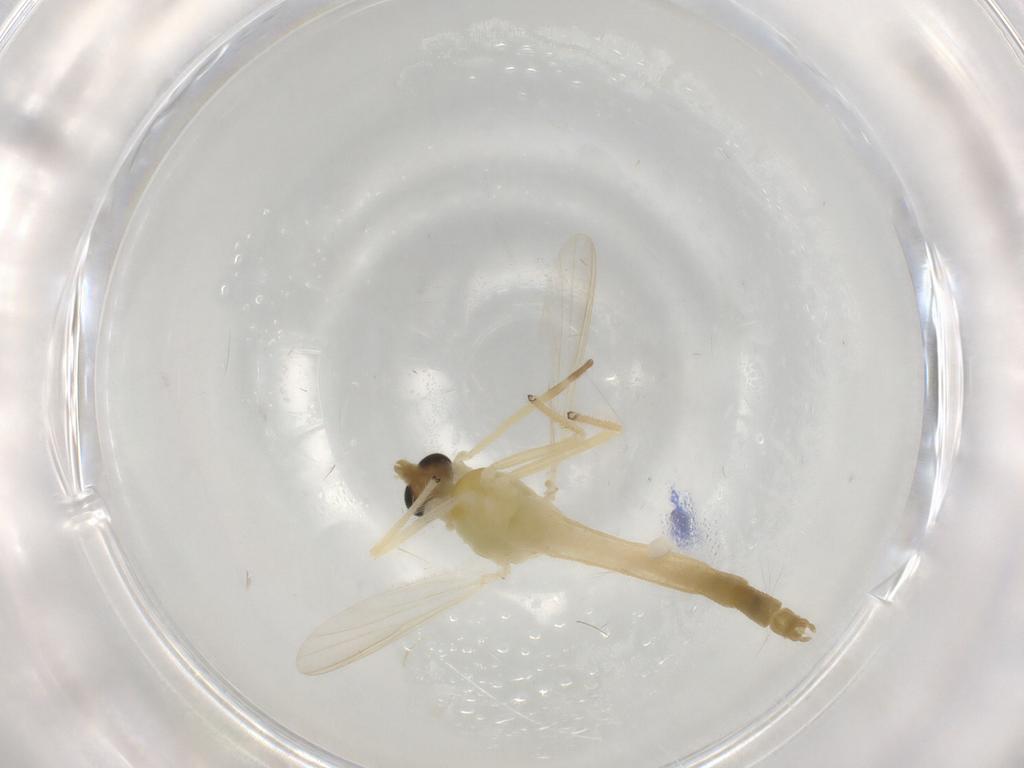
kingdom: Animalia
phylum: Arthropoda
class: Insecta
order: Diptera
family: Chironomidae
